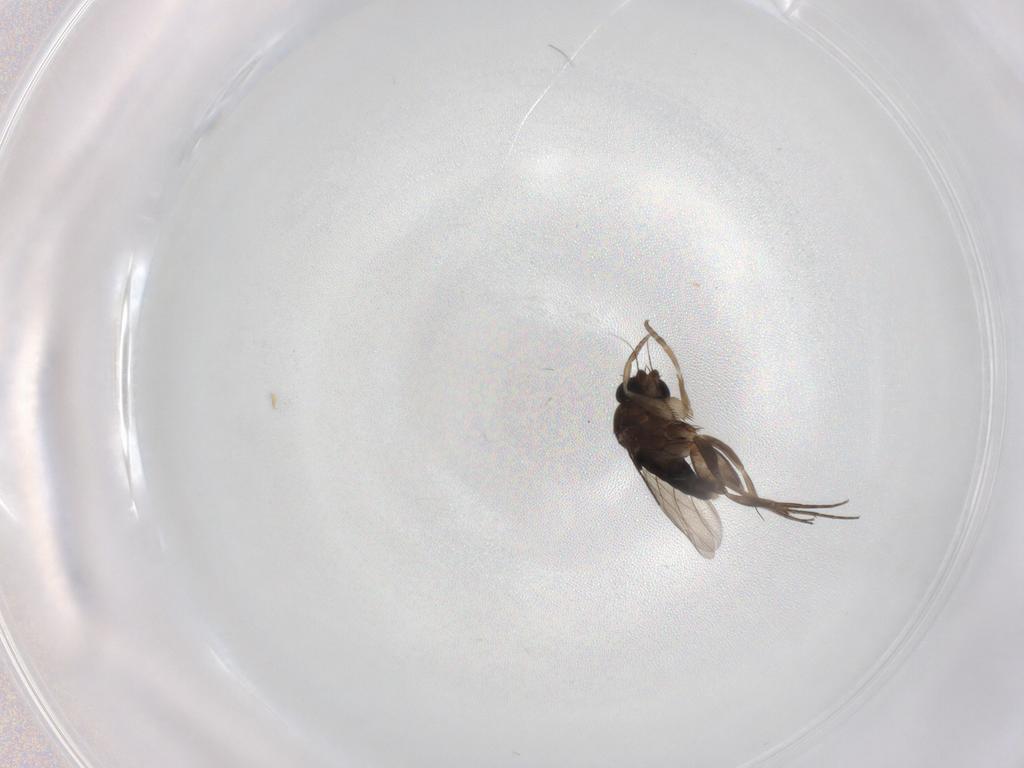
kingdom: Animalia
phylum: Arthropoda
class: Insecta
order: Diptera
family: Phoridae
